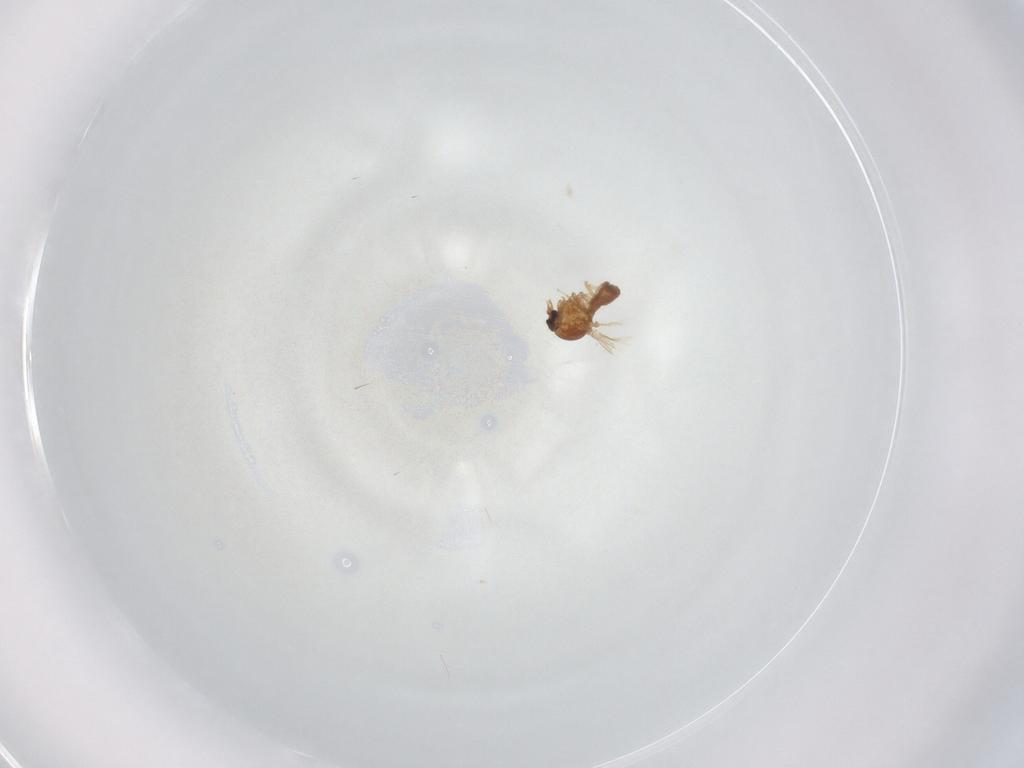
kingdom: Animalia
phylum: Arthropoda
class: Insecta
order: Diptera
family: Ceratopogonidae
